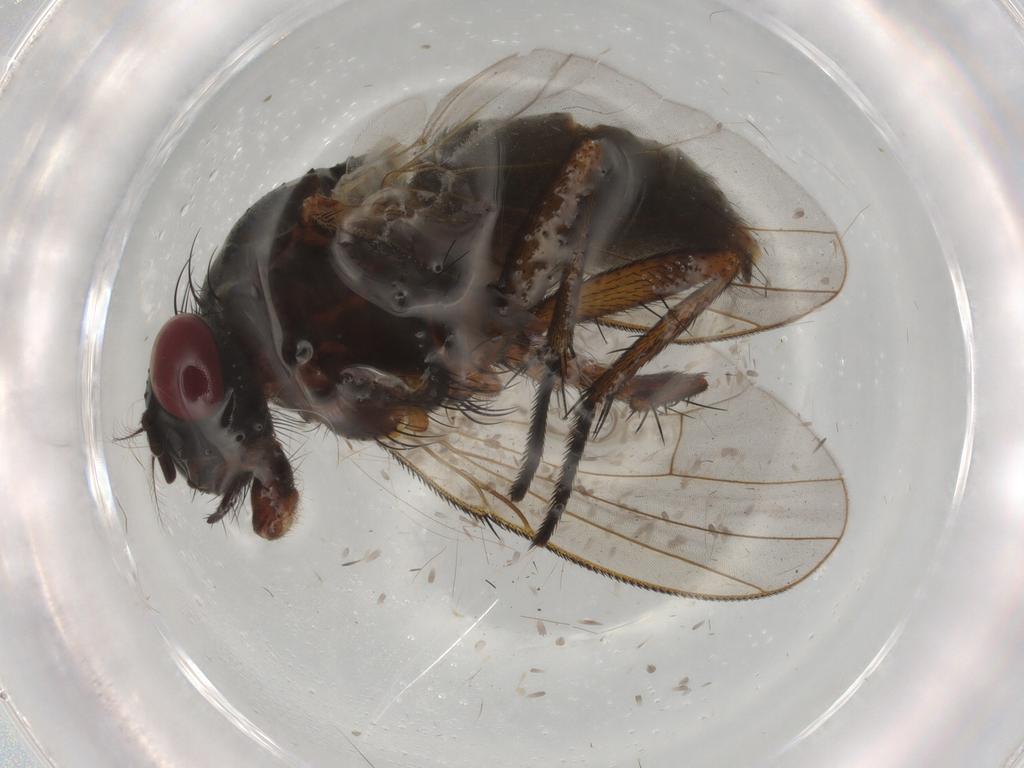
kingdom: Animalia
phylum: Arthropoda
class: Insecta
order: Diptera
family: Muscidae
